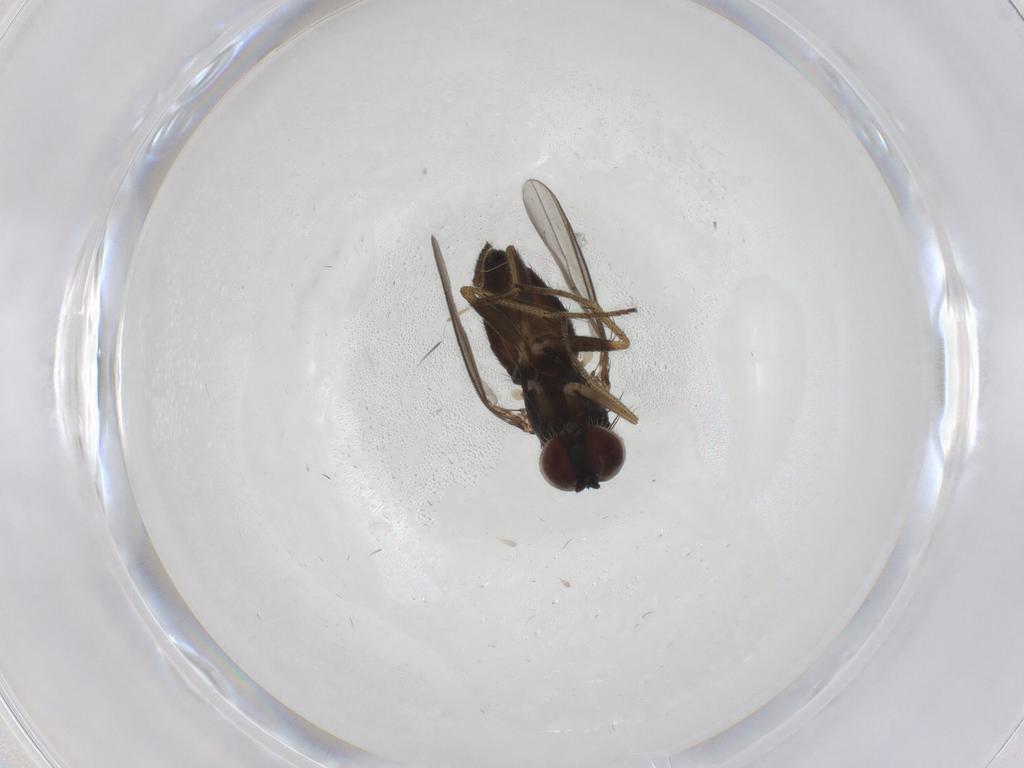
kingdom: Animalia
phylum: Arthropoda
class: Insecta
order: Diptera
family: Dolichopodidae
